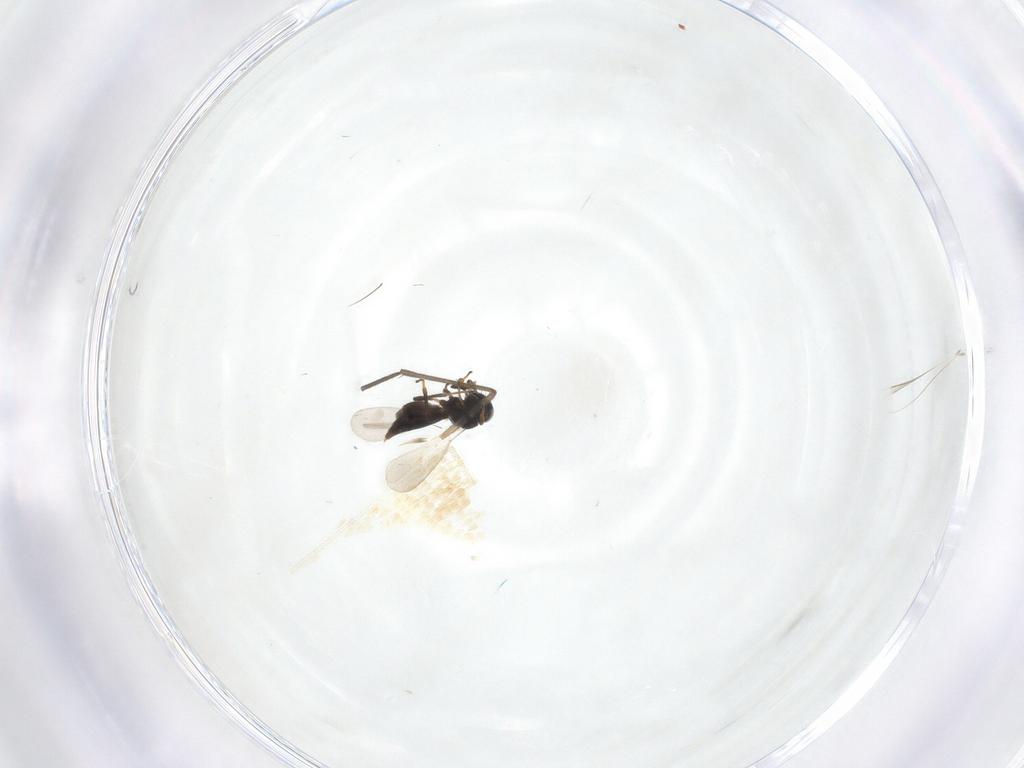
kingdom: Animalia
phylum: Arthropoda
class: Insecta
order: Hymenoptera
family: Platygastridae
